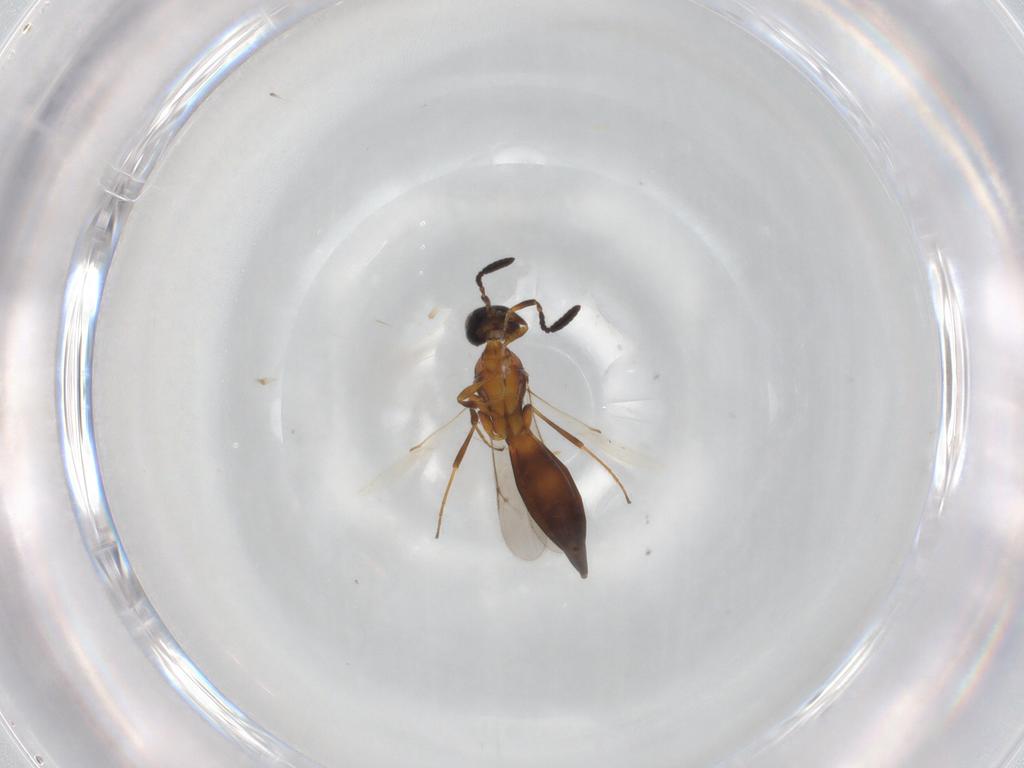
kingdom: Animalia
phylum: Arthropoda
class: Insecta
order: Hymenoptera
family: Scelionidae
